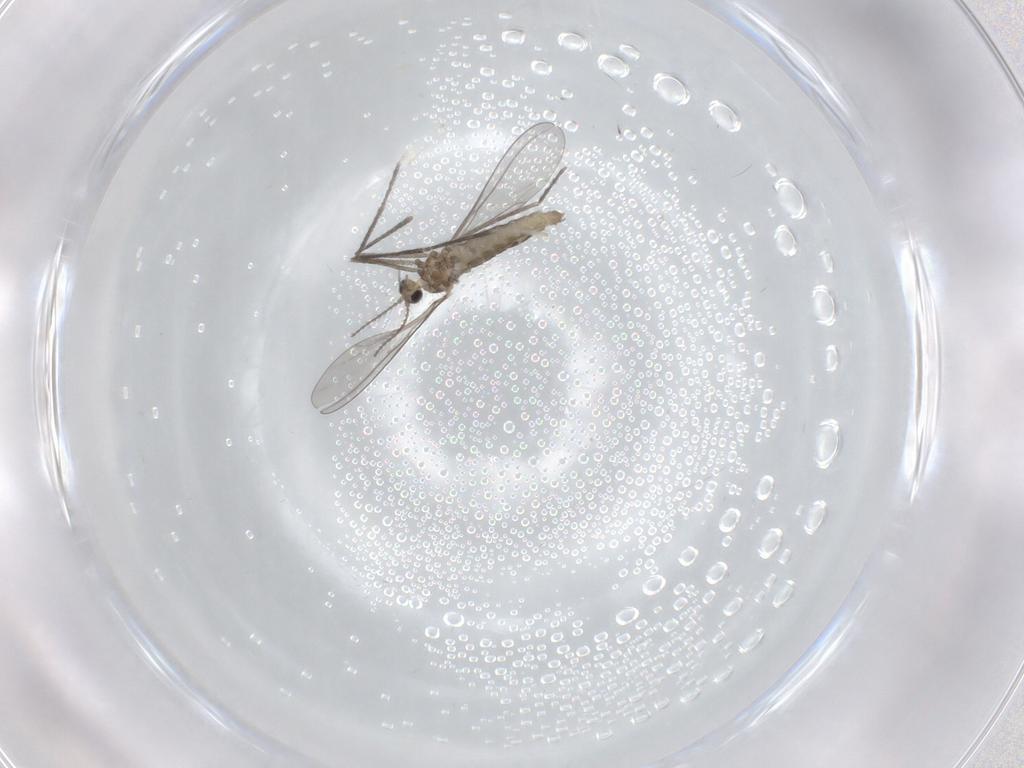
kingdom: Animalia
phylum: Arthropoda
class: Insecta
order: Diptera
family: Cecidomyiidae
